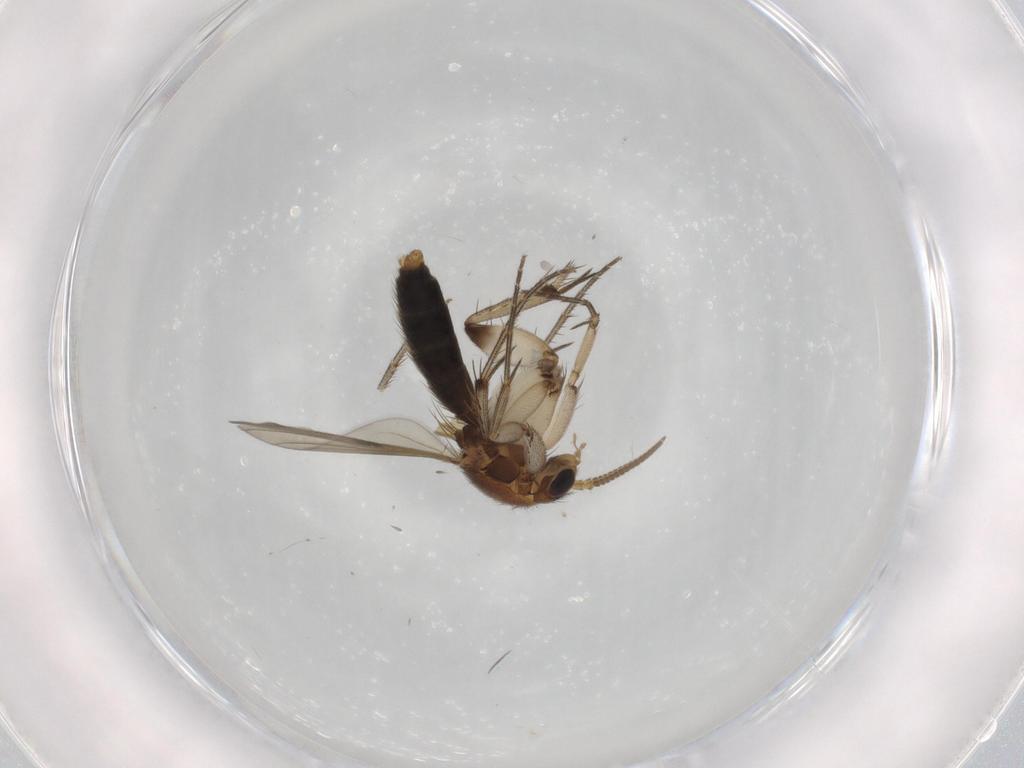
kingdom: Animalia
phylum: Arthropoda
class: Insecta
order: Diptera
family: Mycetophilidae
